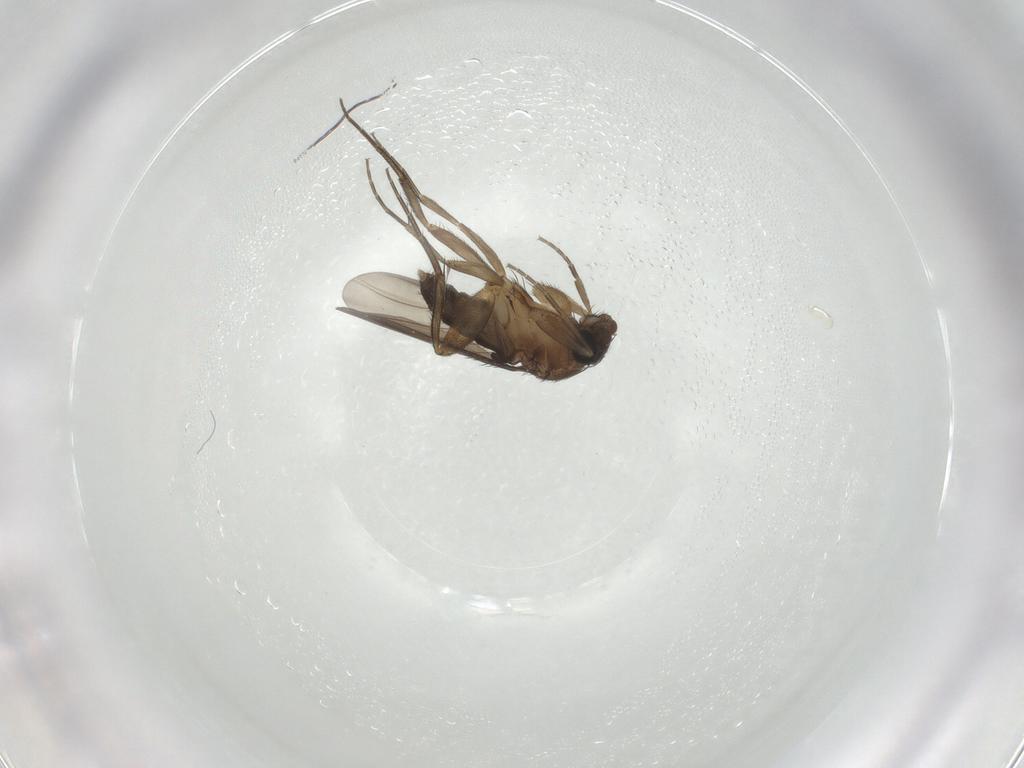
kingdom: Animalia
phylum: Arthropoda
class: Insecta
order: Diptera
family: Phoridae
